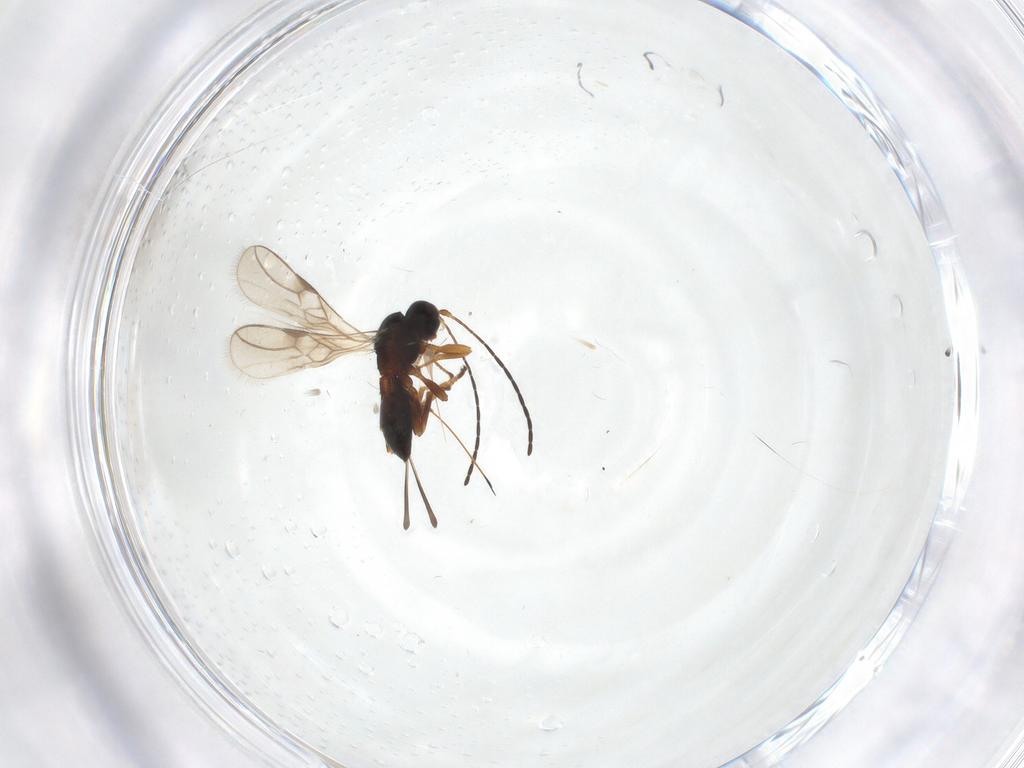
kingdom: Animalia
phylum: Arthropoda
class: Insecta
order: Hymenoptera
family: Braconidae
